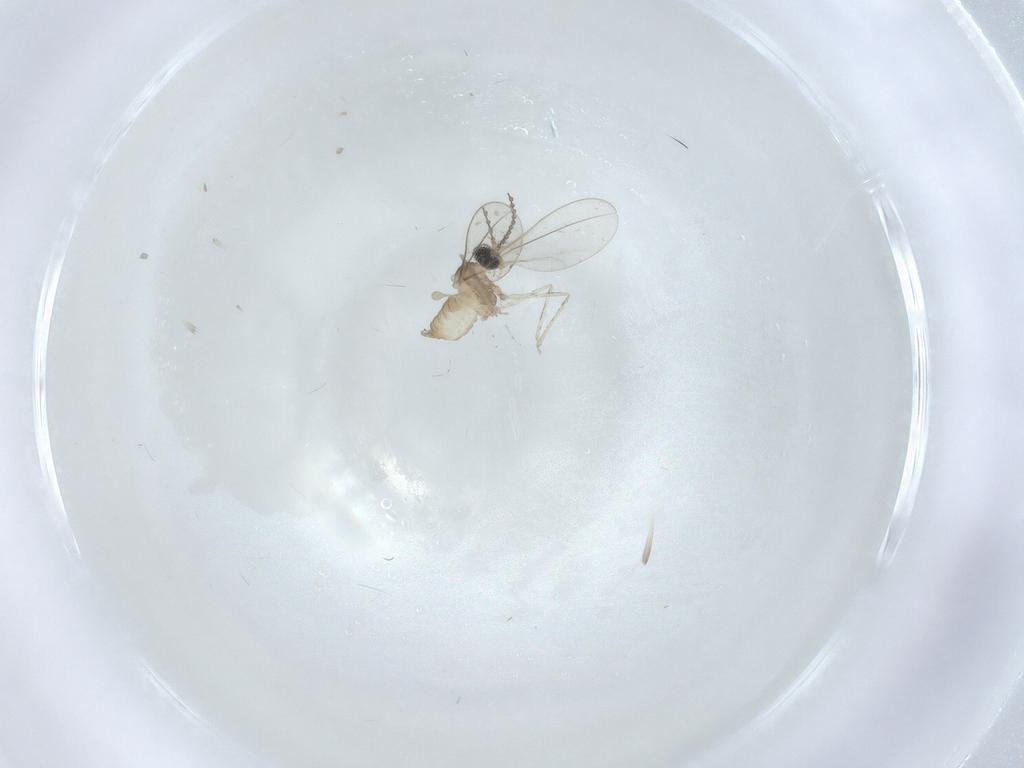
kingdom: Animalia
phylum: Arthropoda
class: Insecta
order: Diptera
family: Cecidomyiidae
